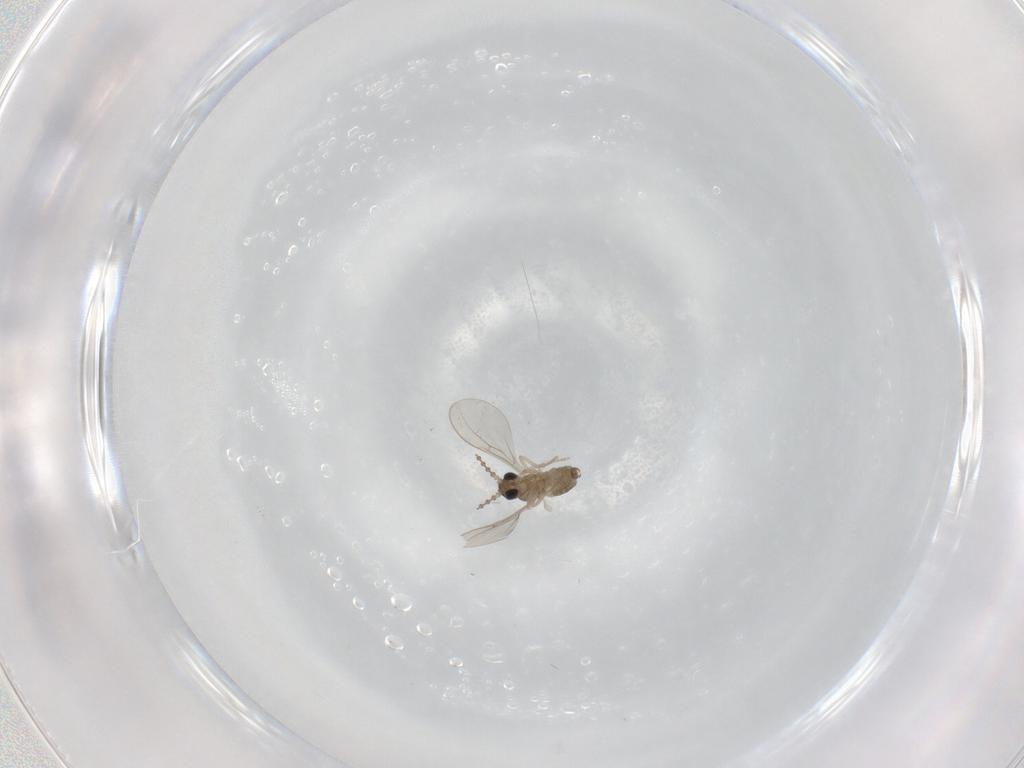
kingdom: Animalia
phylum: Arthropoda
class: Insecta
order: Diptera
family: Cecidomyiidae
